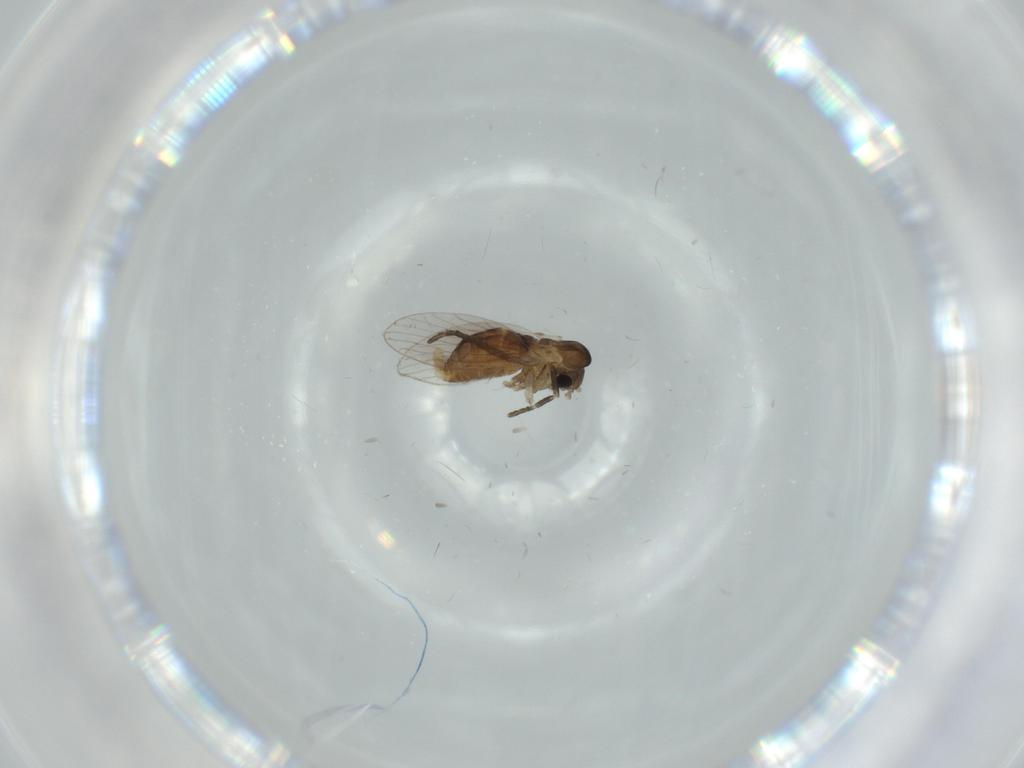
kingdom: Animalia
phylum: Arthropoda
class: Insecta
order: Diptera
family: Psychodidae
